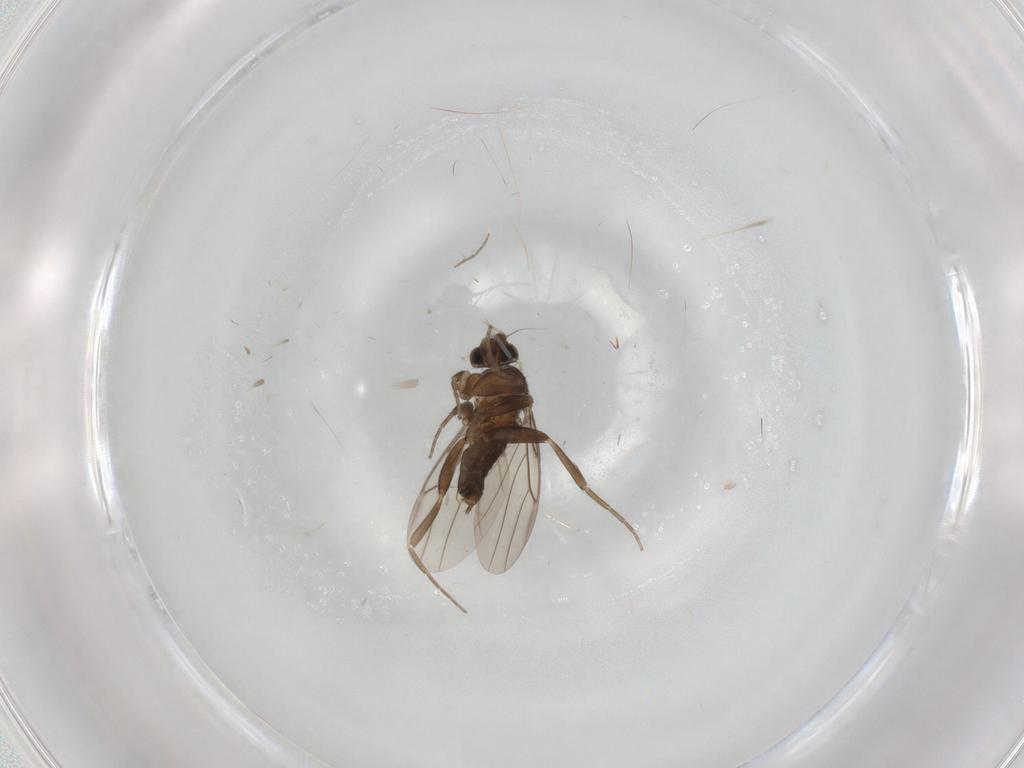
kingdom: Animalia
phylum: Arthropoda
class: Insecta
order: Diptera
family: Phoridae
